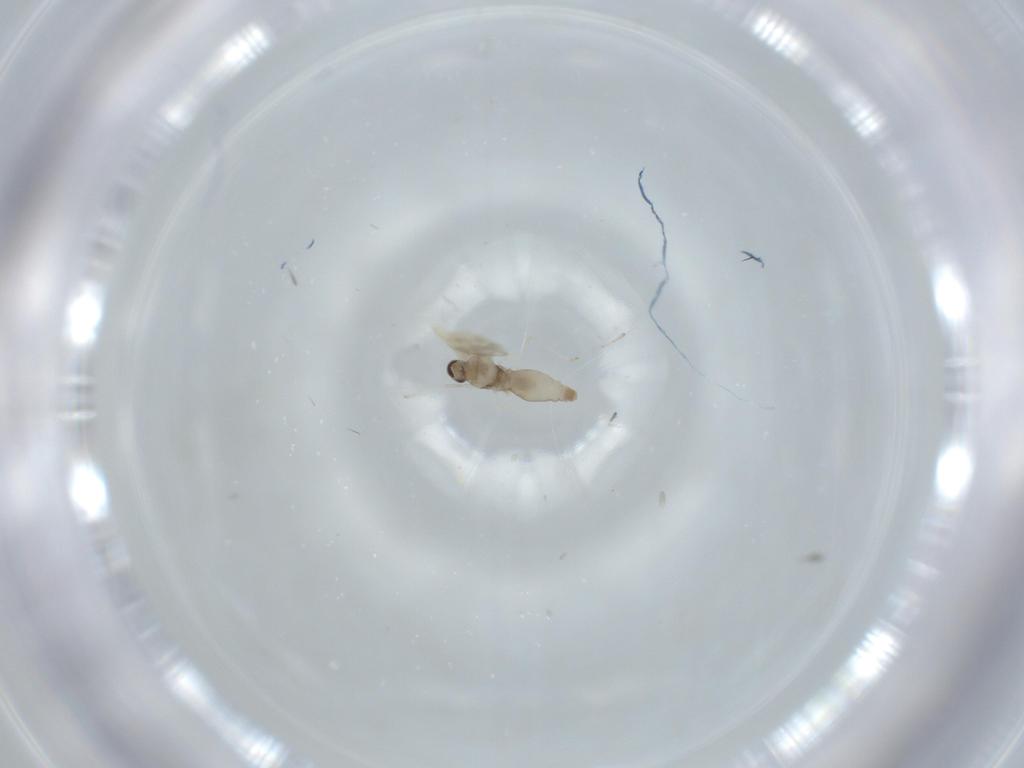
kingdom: Animalia
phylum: Arthropoda
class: Insecta
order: Diptera
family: Cecidomyiidae
